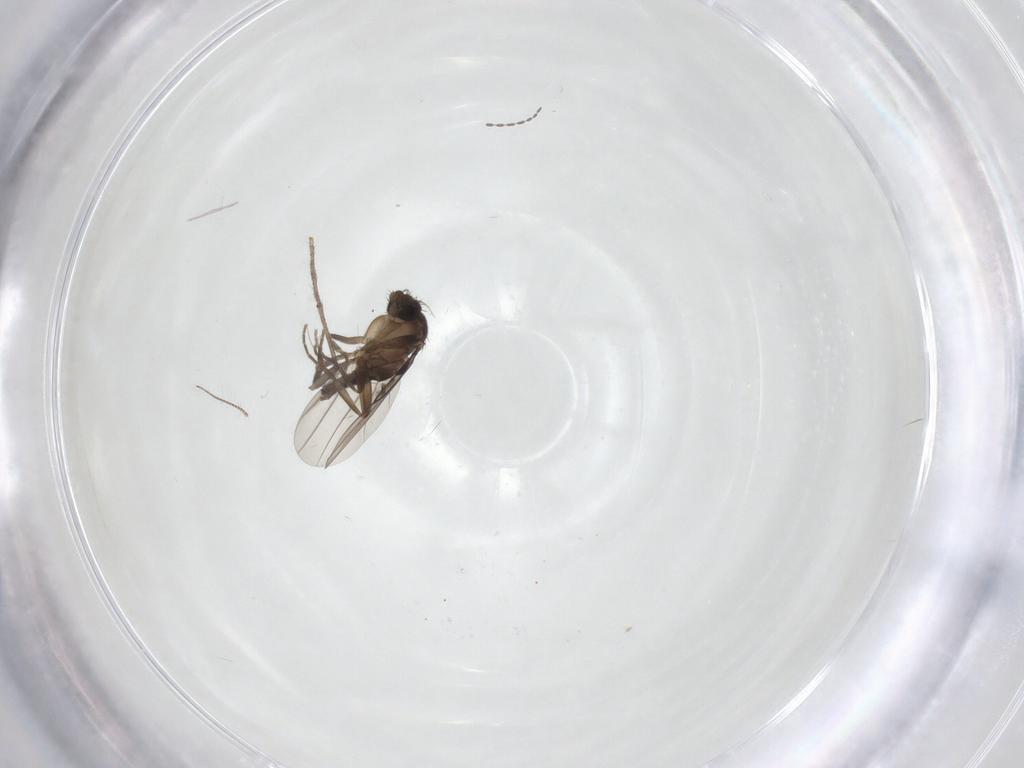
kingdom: Animalia
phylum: Arthropoda
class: Insecta
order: Diptera
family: Psychodidae
